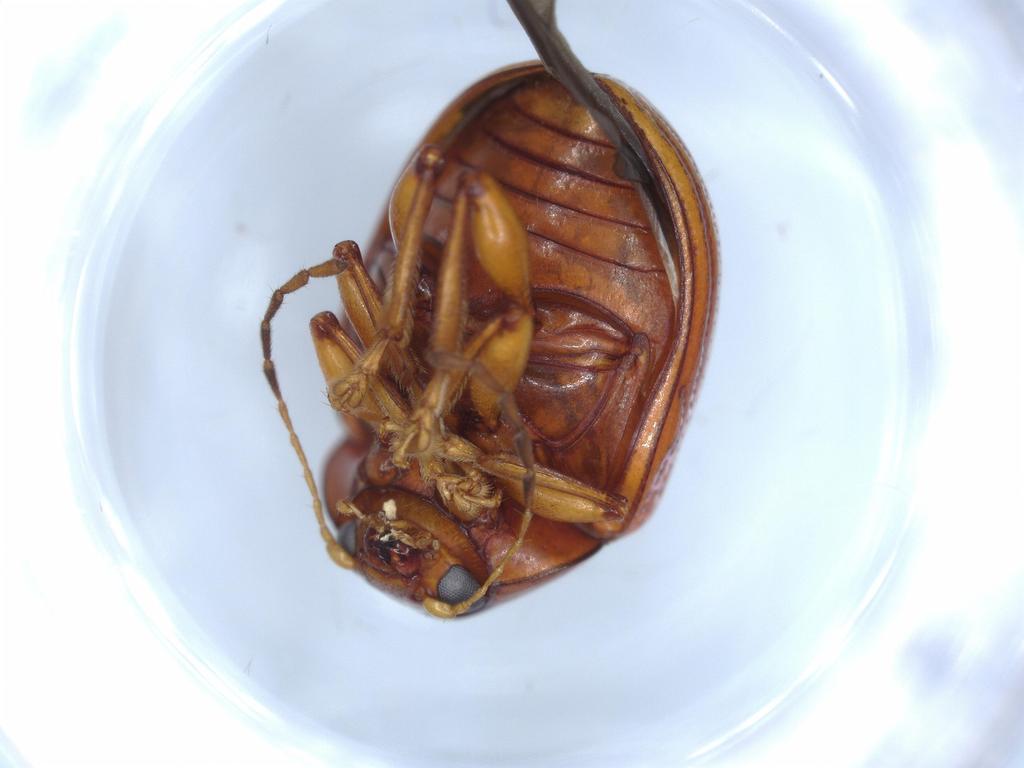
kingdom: Animalia
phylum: Arthropoda
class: Insecta
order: Coleoptera
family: Chrysomelidae
